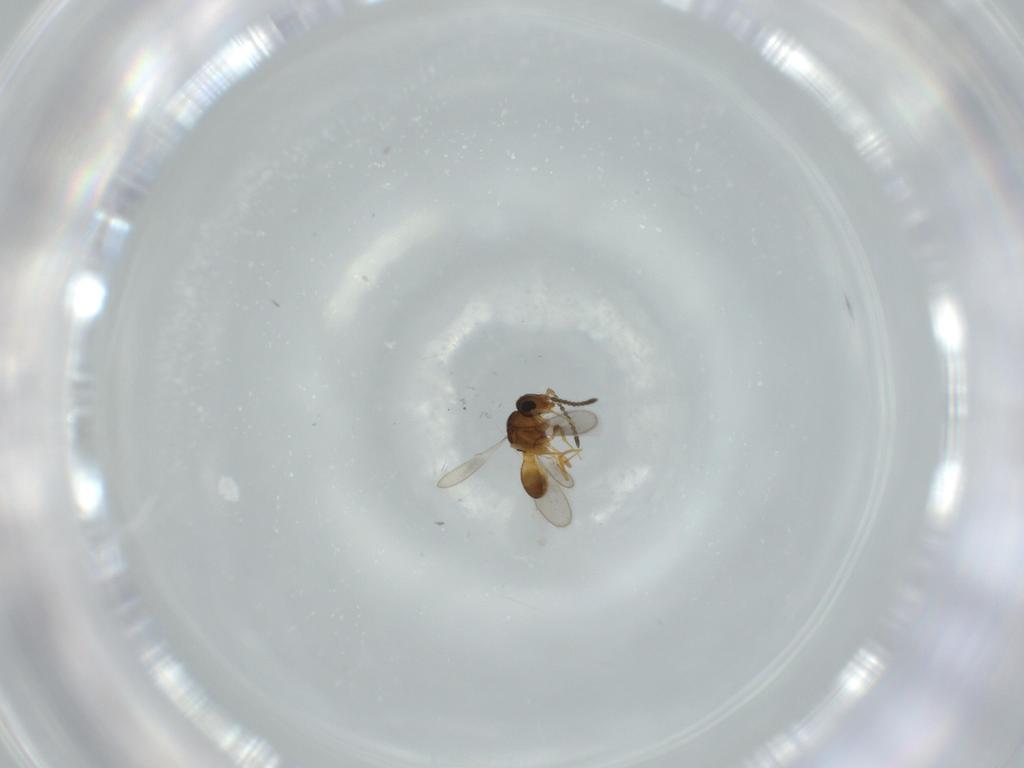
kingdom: Animalia
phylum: Arthropoda
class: Insecta
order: Hymenoptera
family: Scelionidae
